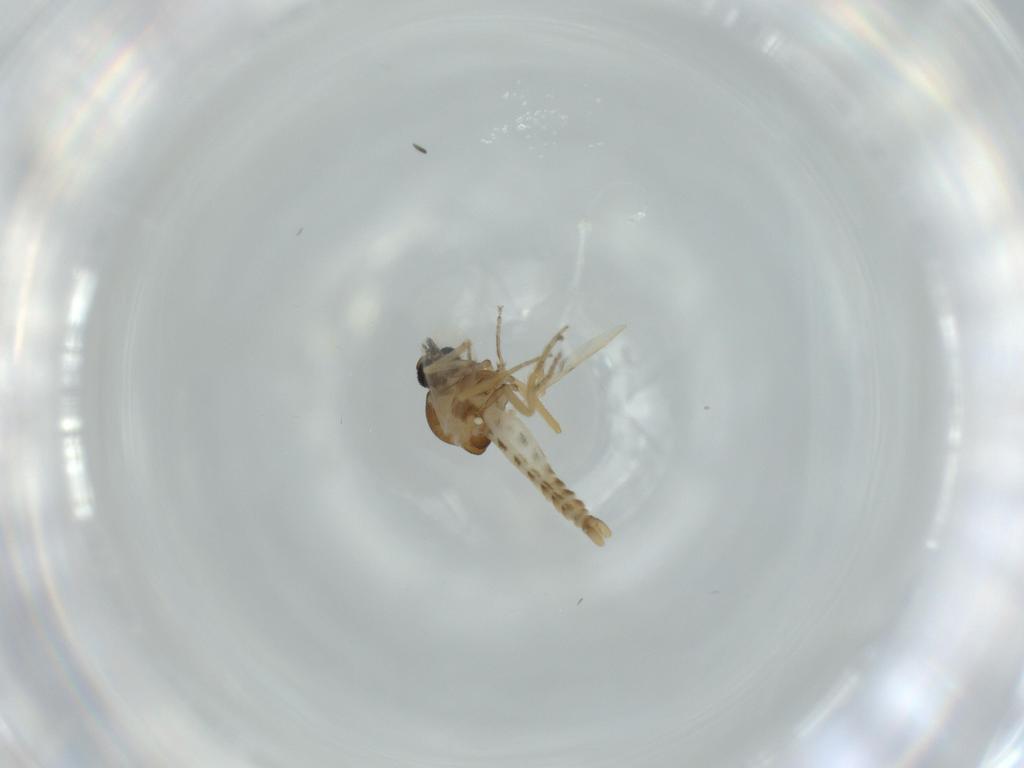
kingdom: Animalia
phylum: Arthropoda
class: Insecta
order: Diptera
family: Ceratopogonidae
